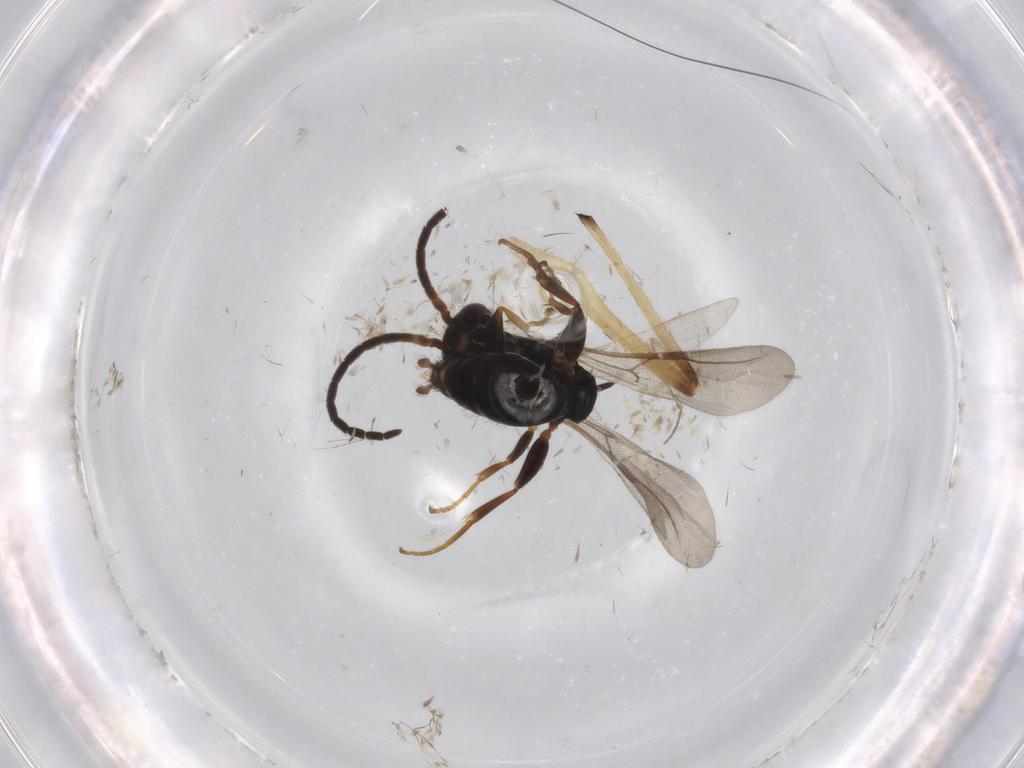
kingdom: Animalia
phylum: Arthropoda
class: Insecta
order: Hymenoptera
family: Bethylidae
